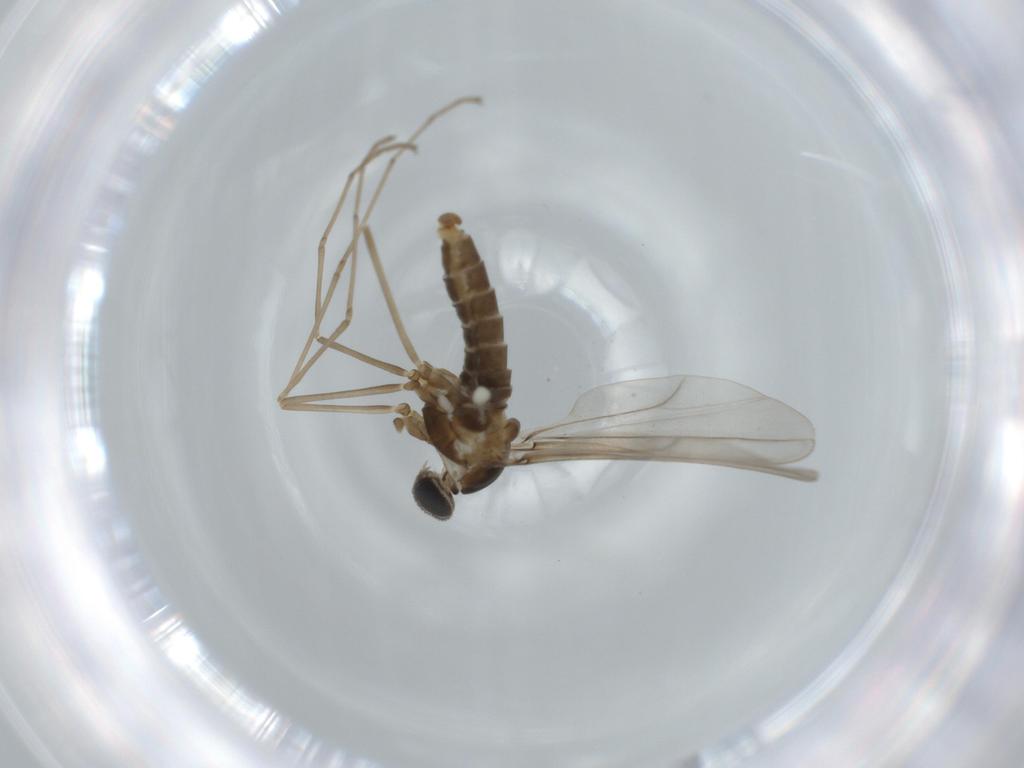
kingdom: Animalia
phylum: Arthropoda
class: Insecta
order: Diptera
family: Cecidomyiidae
